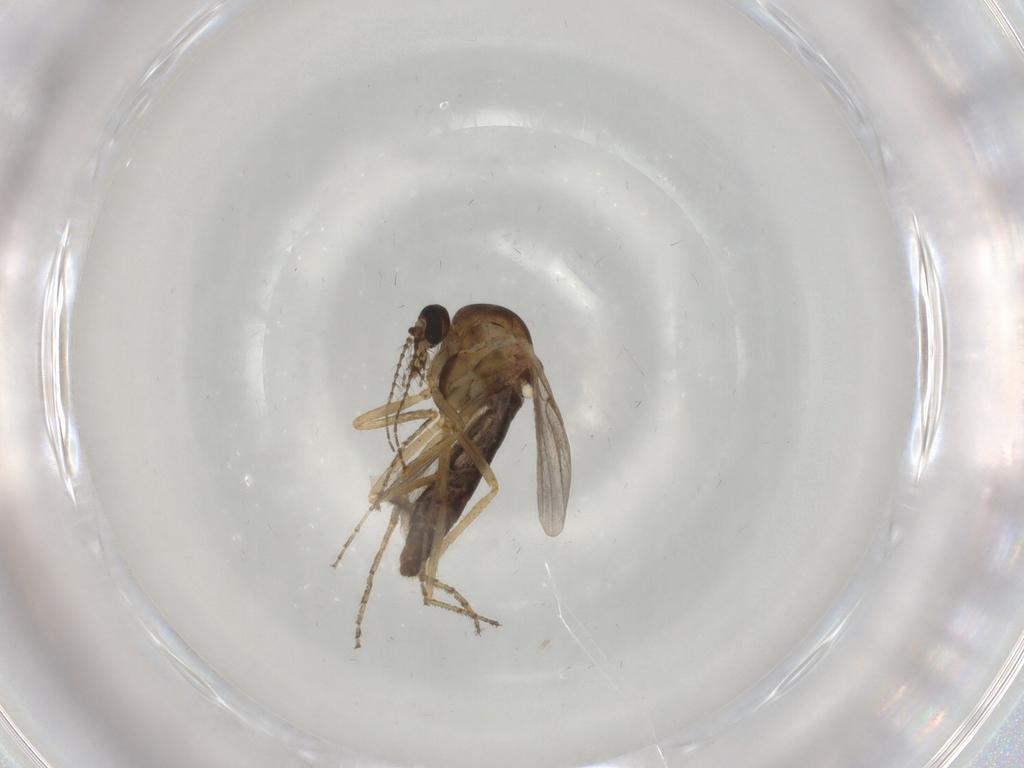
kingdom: Animalia
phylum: Arthropoda
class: Insecta
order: Diptera
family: Ceratopogonidae
